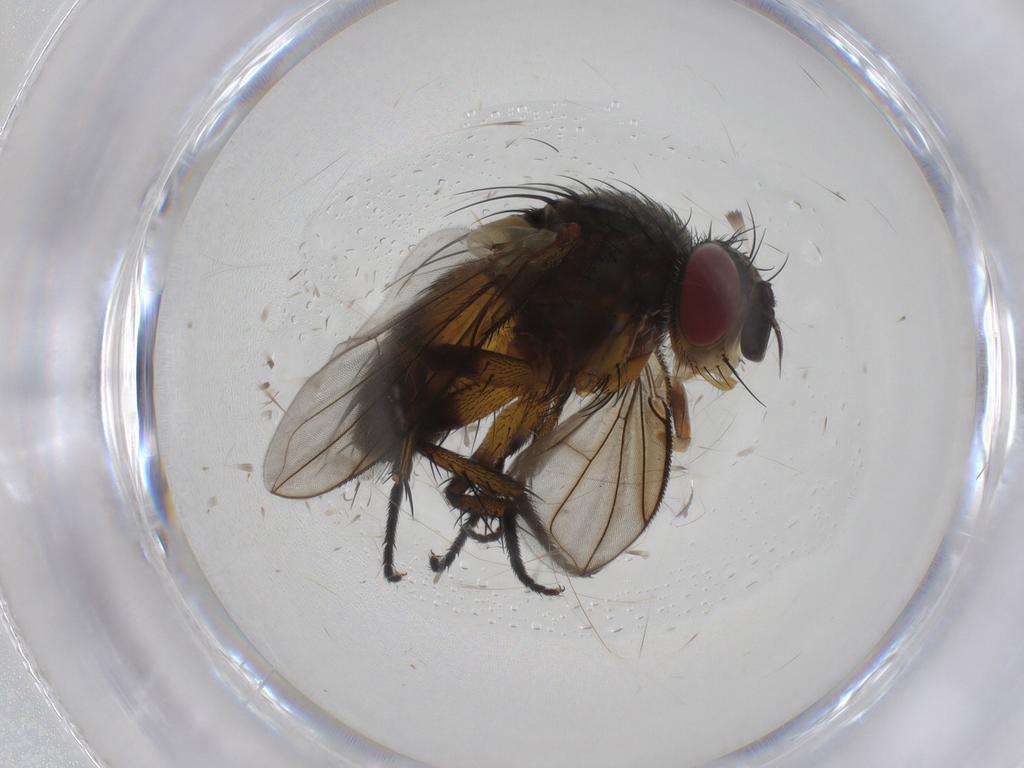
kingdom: Animalia
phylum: Arthropoda
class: Insecta
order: Diptera
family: Tachinidae
